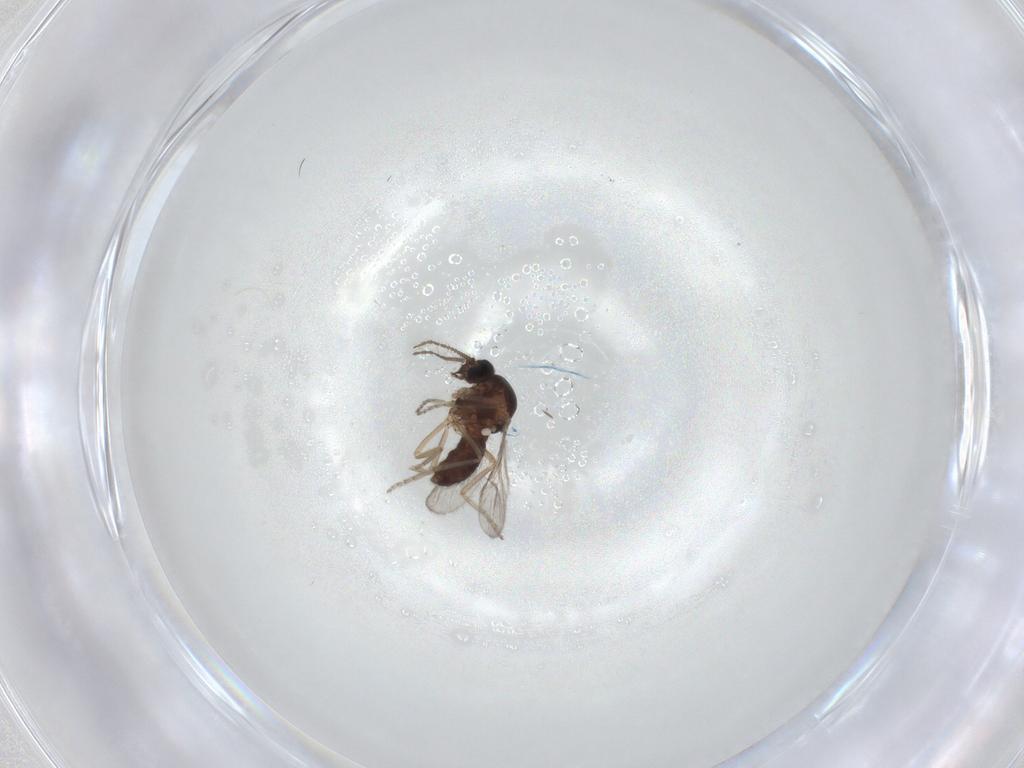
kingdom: Animalia
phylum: Arthropoda
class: Insecta
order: Diptera
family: Ceratopogonidae
